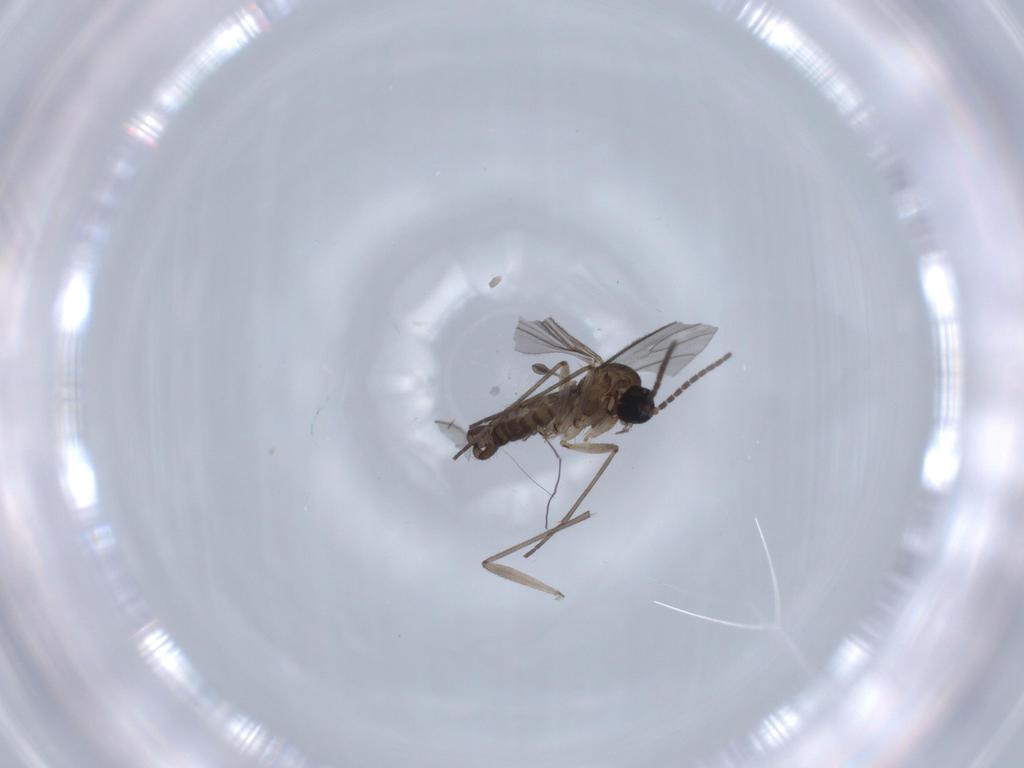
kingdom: Animalia
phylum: Arthropoda
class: Insecta
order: Diptera
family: Sciaridae
